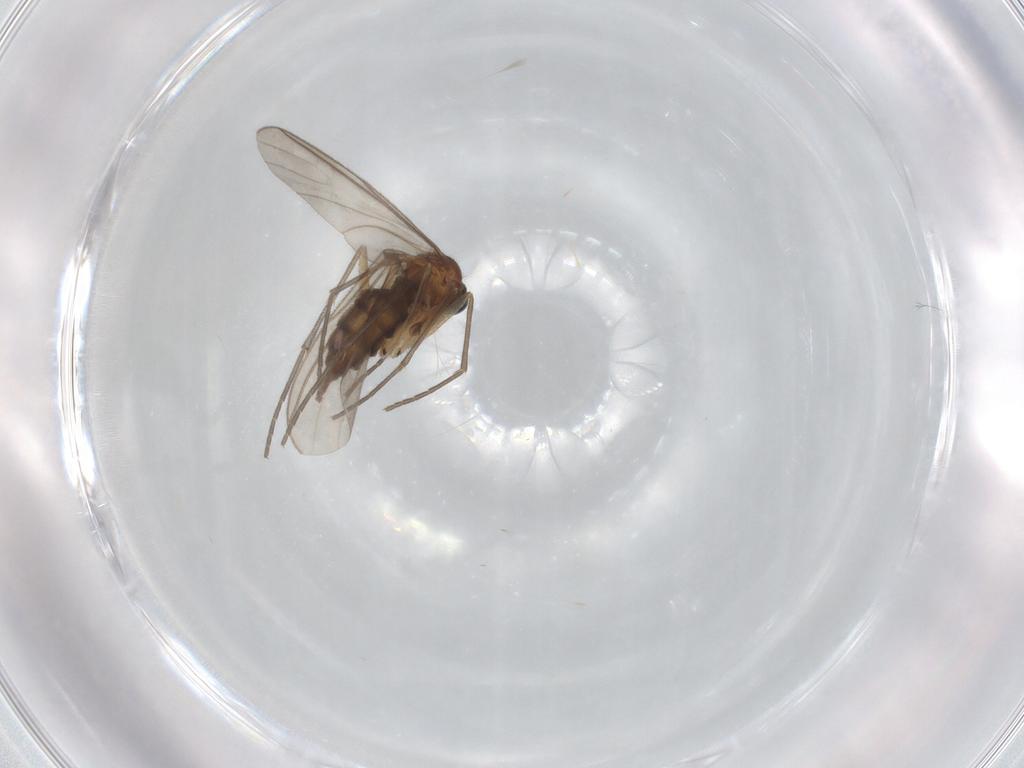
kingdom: Animalia
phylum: Arthropoda
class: Insecta
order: Diptera
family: Sciaridae
